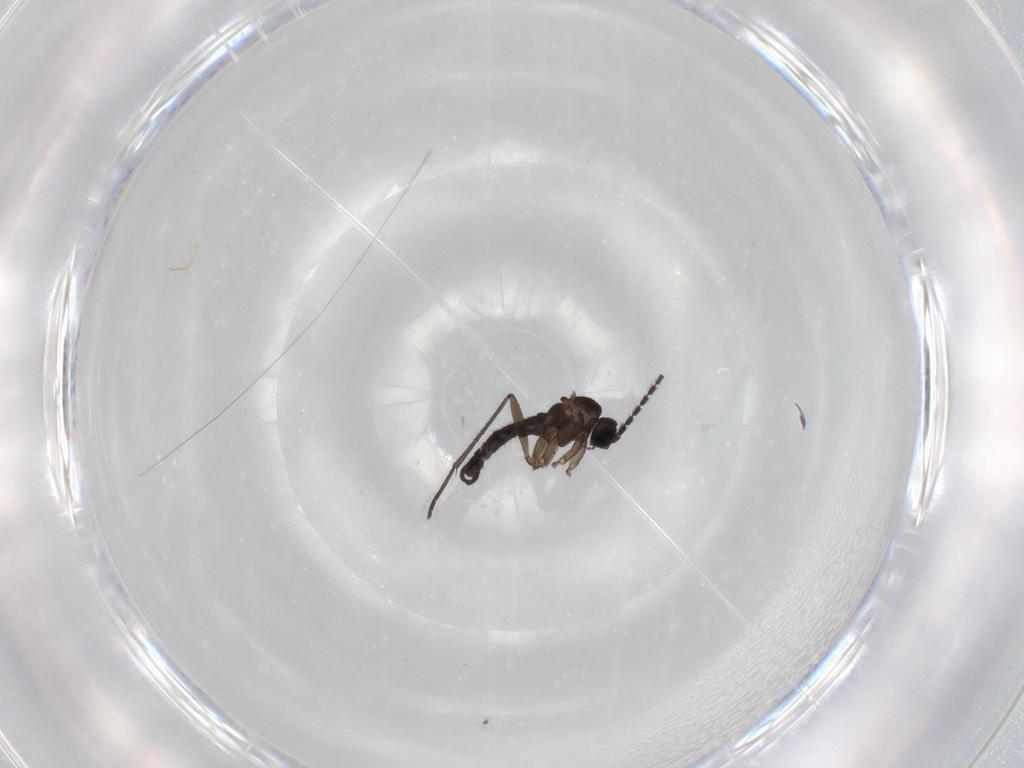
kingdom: Animalia
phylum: Arthropoda
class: Insecta
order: Diptera
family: Sciaridae
